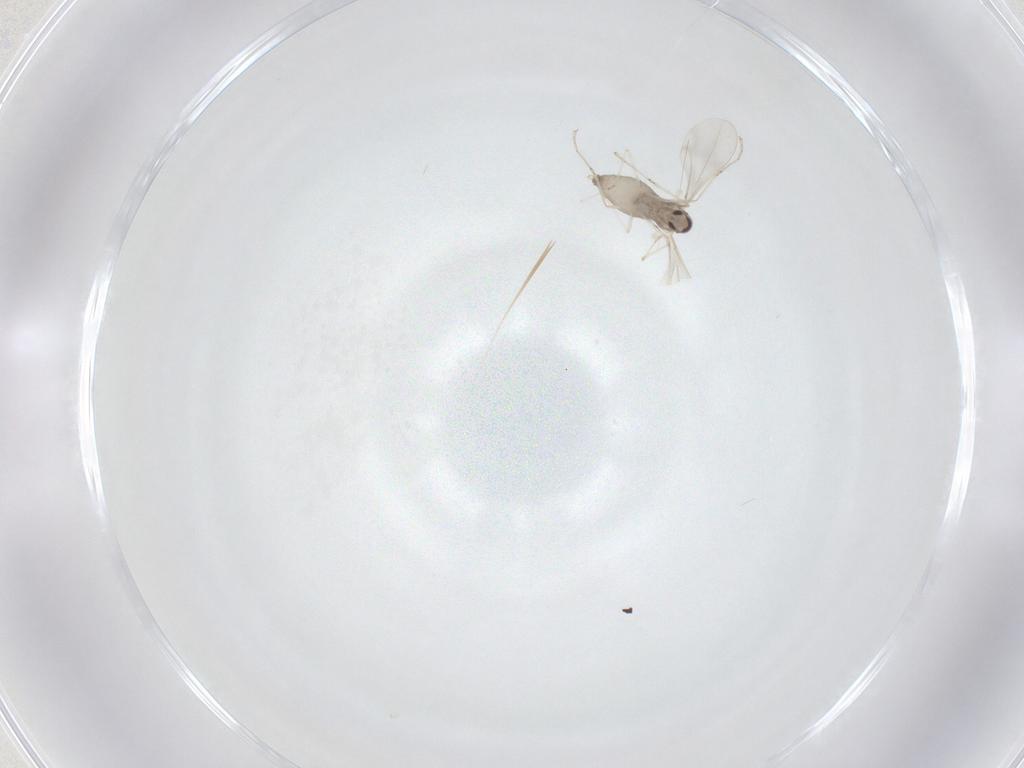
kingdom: Animalia
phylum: Arthropoda
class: Insecta
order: Diptera
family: Cecidomyiidae
